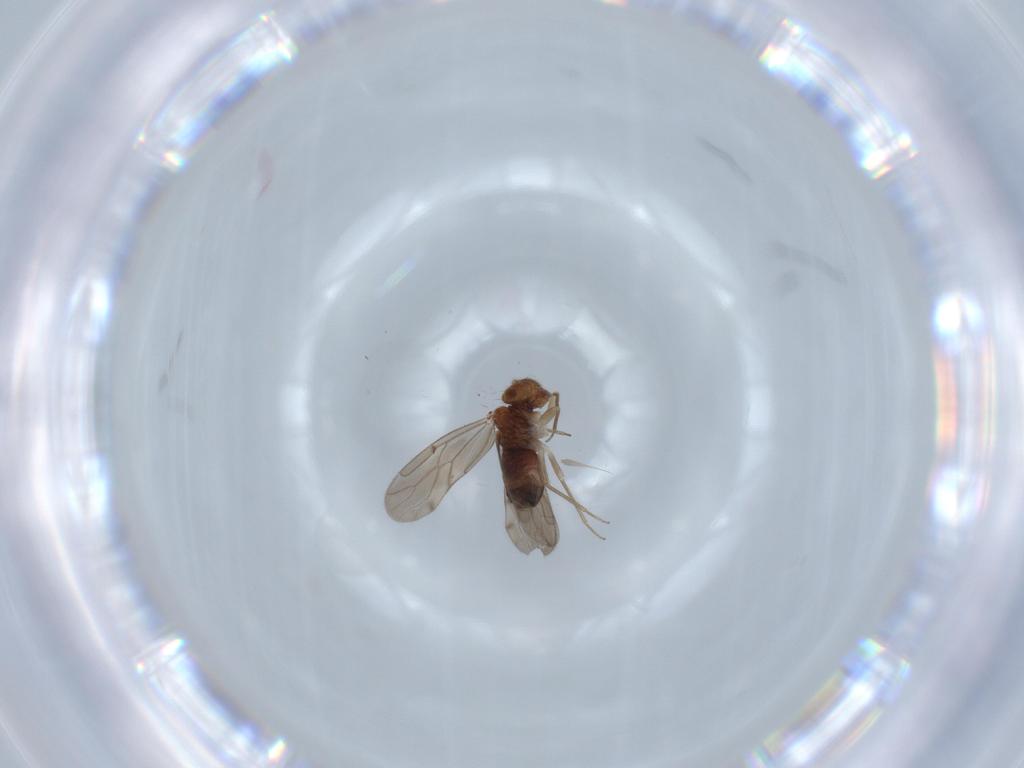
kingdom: Animalia
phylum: Arthropoda
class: Insecta
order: Psocodea
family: Ectopsocidae
